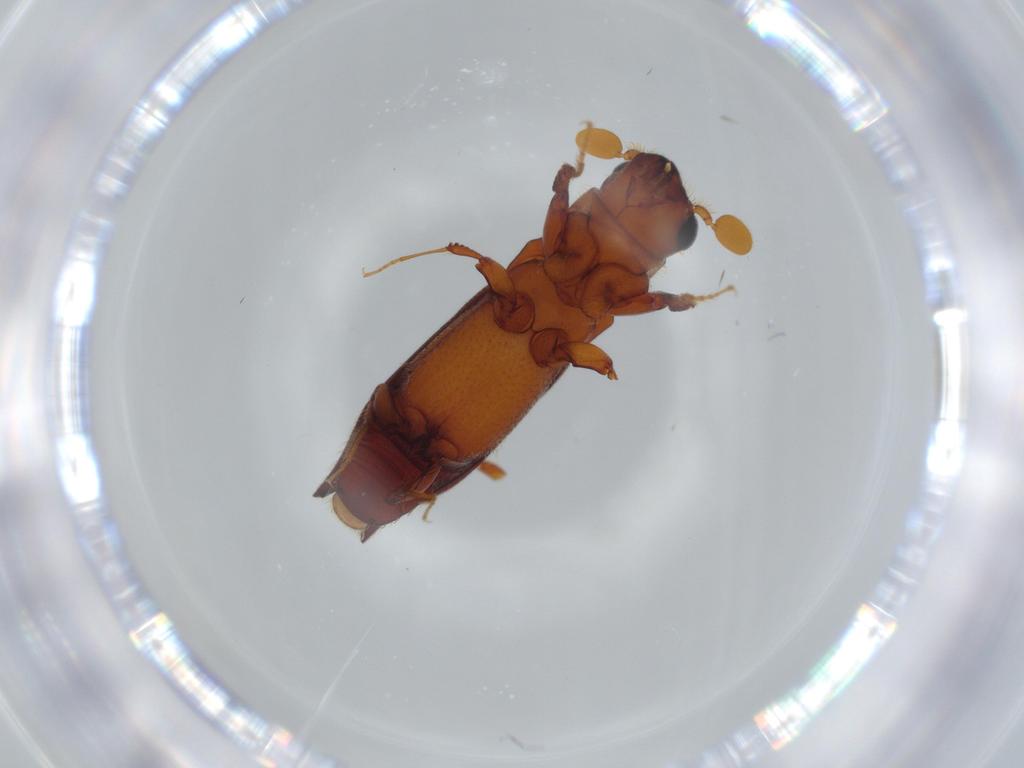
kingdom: Animalia
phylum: Arthropoda
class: Insecta
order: Coleoptera
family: Curculionidae
